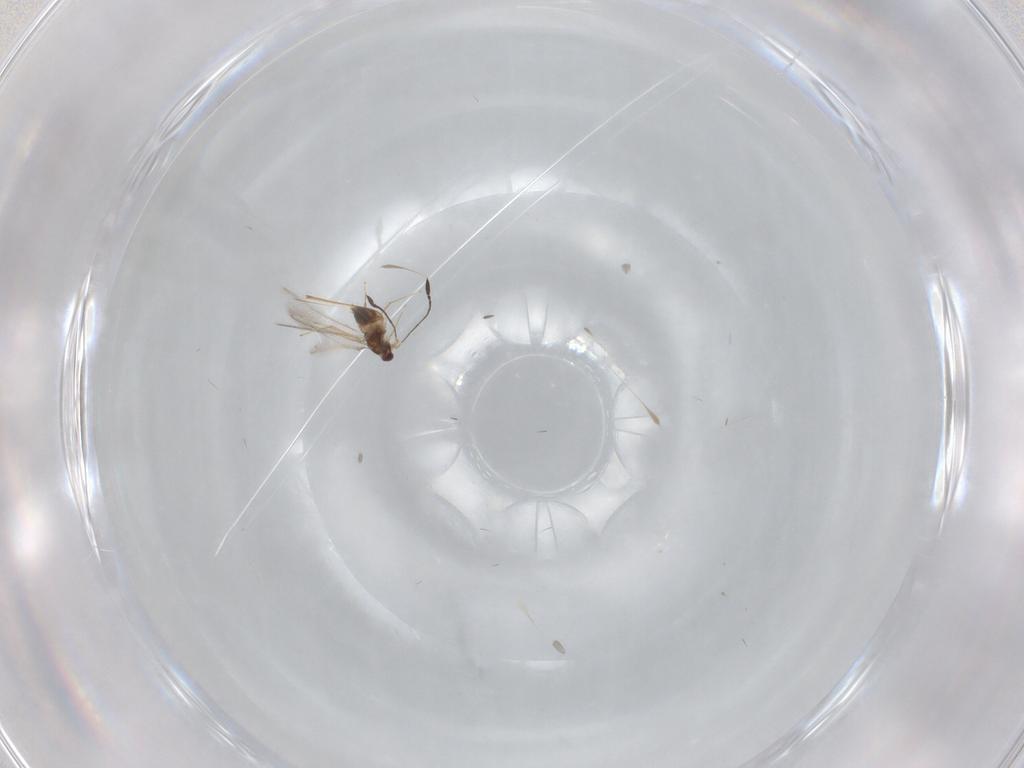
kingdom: Animalia
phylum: Arthropoda
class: Insecta
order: Hymenoptera
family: Mymaridae
